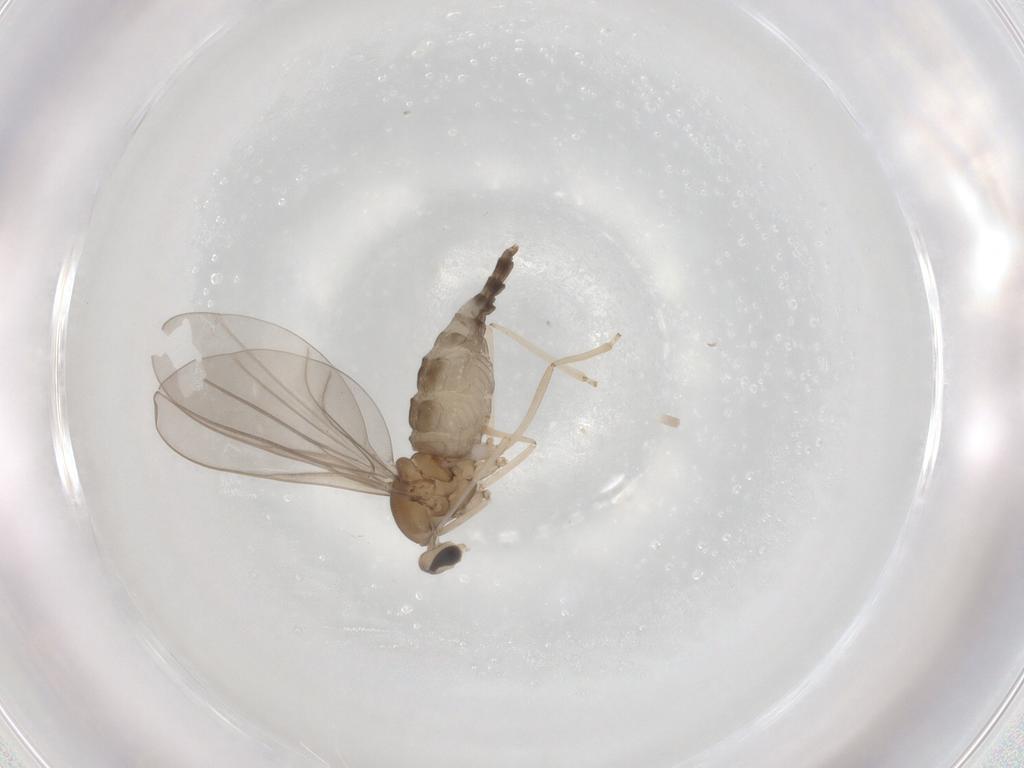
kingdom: Animalia
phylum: Arthropoda
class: Insecta
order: Diptera
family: Cecidomyiidae
